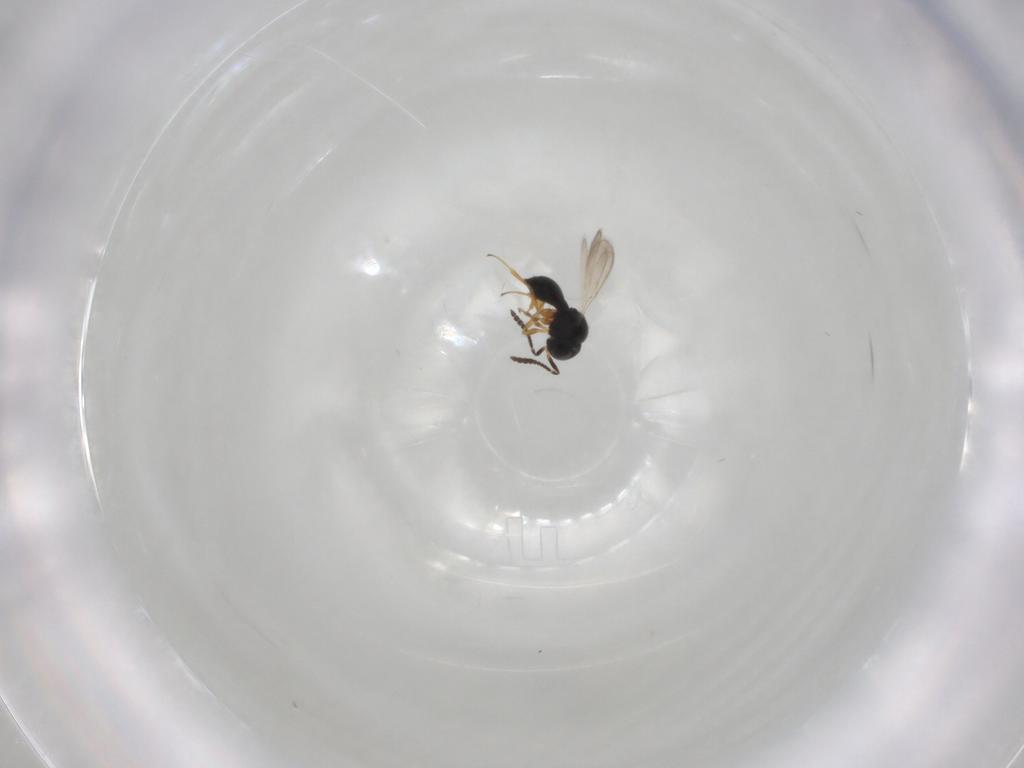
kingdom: Animalia
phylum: Arthropoda
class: Insecta
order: Hymenoptera
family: Scelionidae
